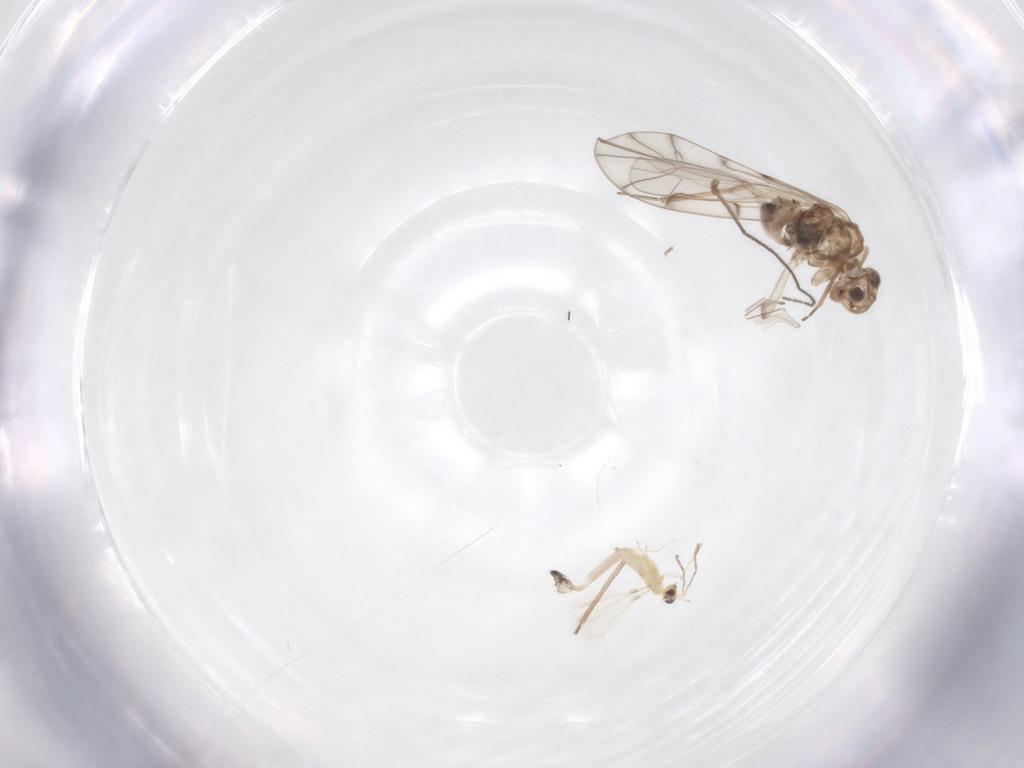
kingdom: Animalia
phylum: Arthropoda
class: Insecta
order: Hymenoptera
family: Mymaridae
